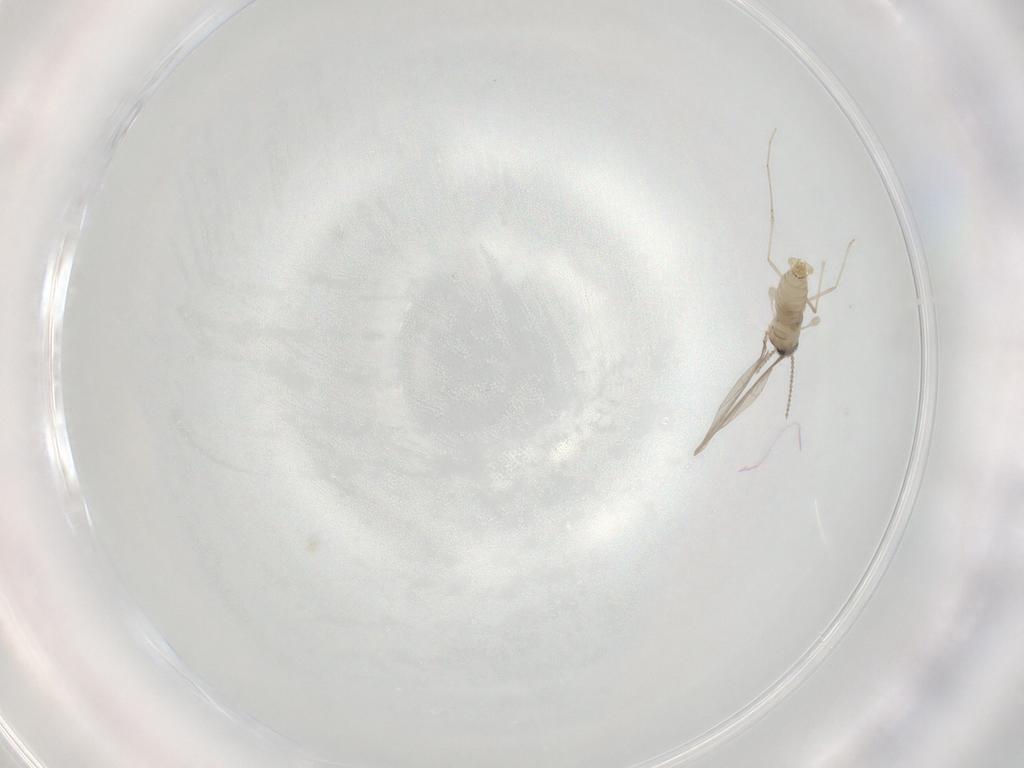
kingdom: Animalia
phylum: Arthropoda
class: Insecta
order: Diptera
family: Cecidomyiidae
